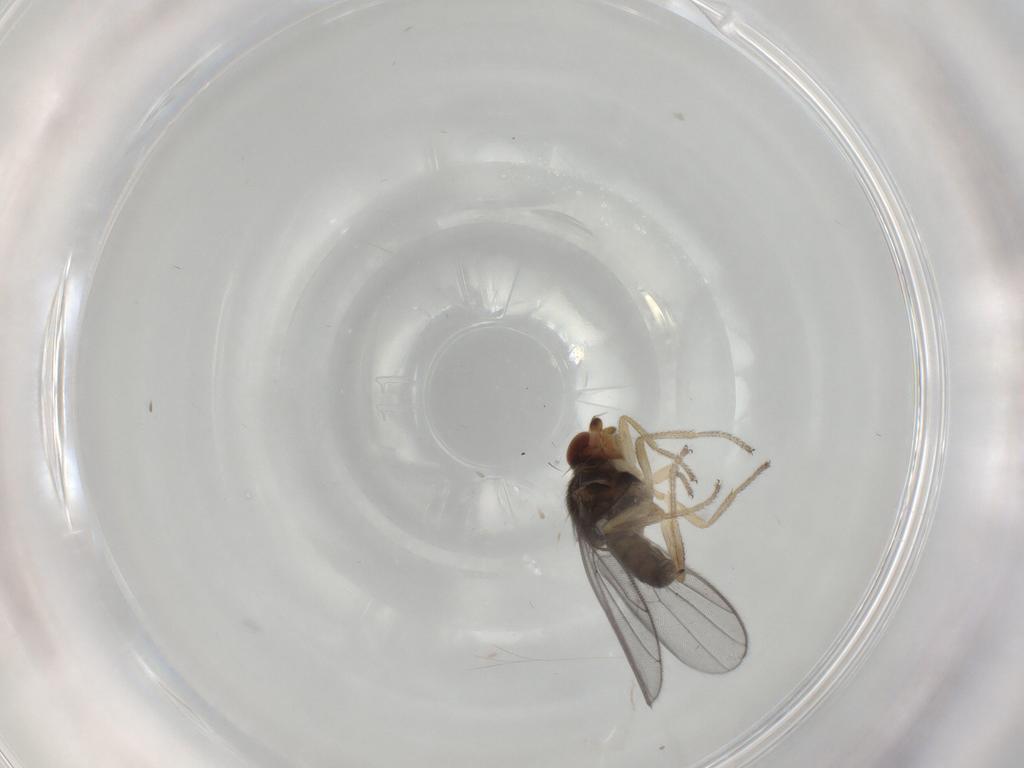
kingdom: Animalia
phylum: Arthropoda
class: Insecta
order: Diptera
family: Chloropidae
